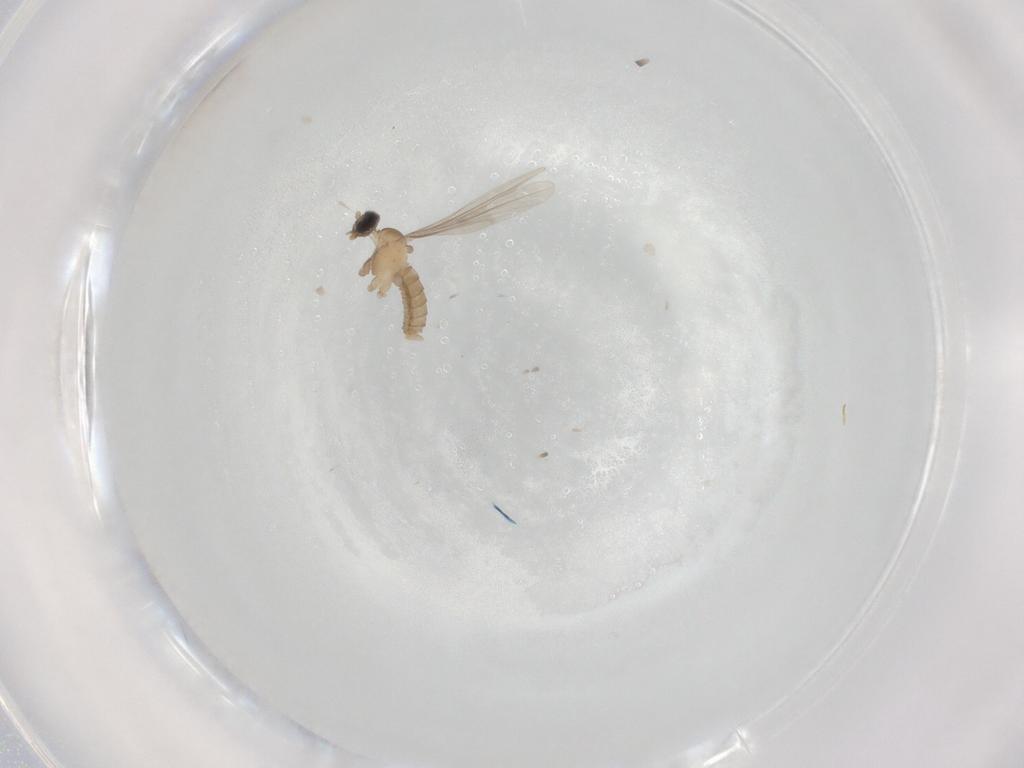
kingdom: Animalia
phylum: Arthropoda
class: Insecta
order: Diptera
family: Cecidomyiidae
